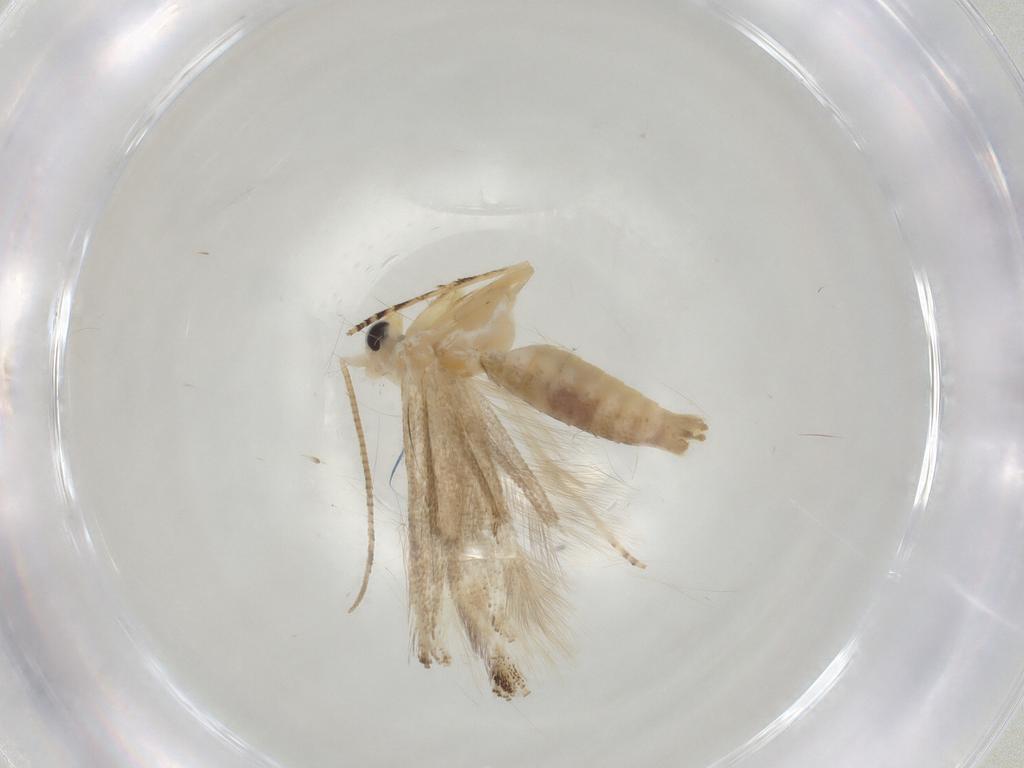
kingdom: Animalia
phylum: Arthropoda
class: Insecta
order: Lepidoptera
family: Bucculatricidae
